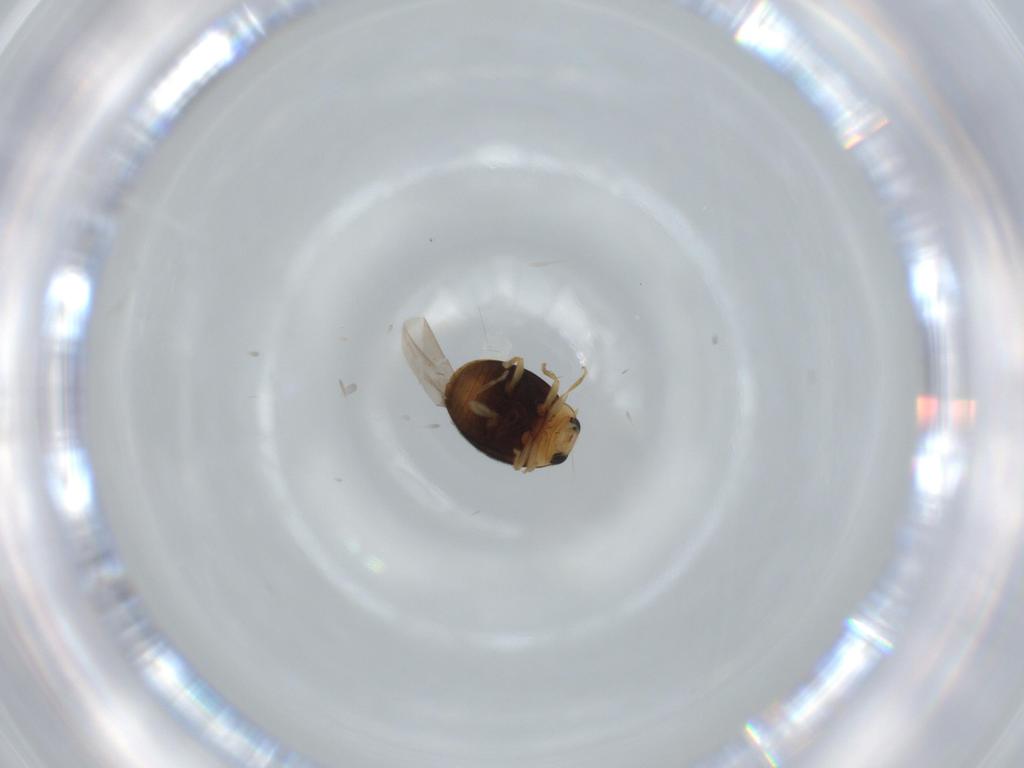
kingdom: Animalia
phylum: Arthropoda
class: Insecta
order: Coleoptera
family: Coccinellidae
